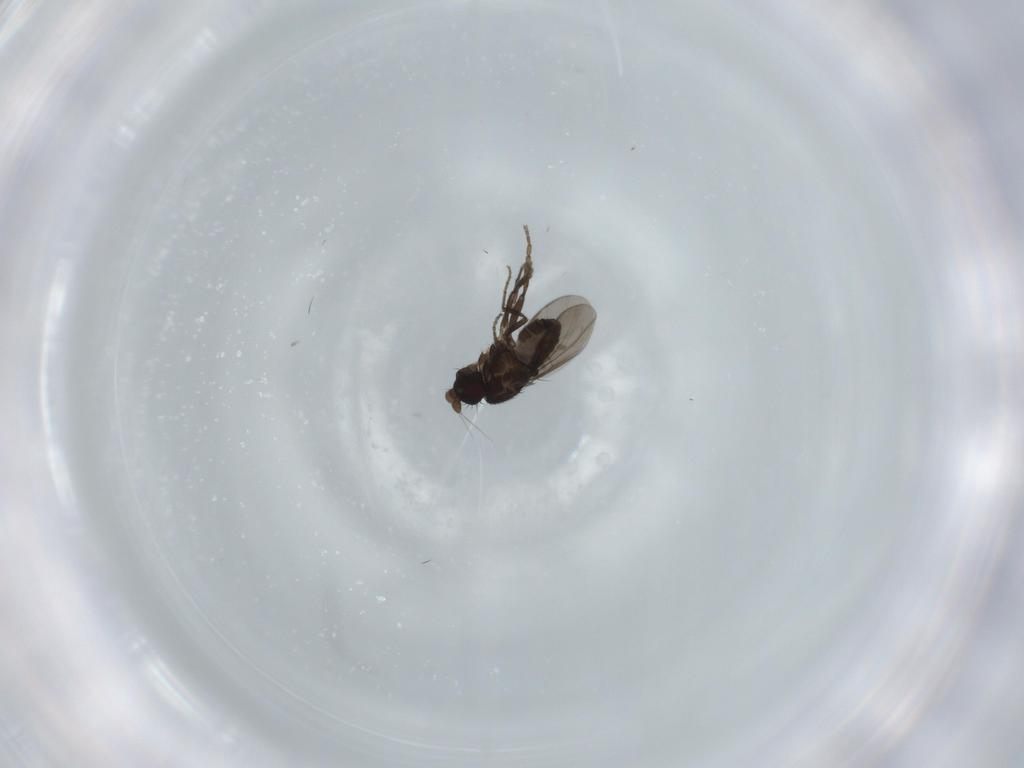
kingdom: Animalia
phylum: Arthropoda
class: Insecta
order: Diptera
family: Sphaeroceridae
